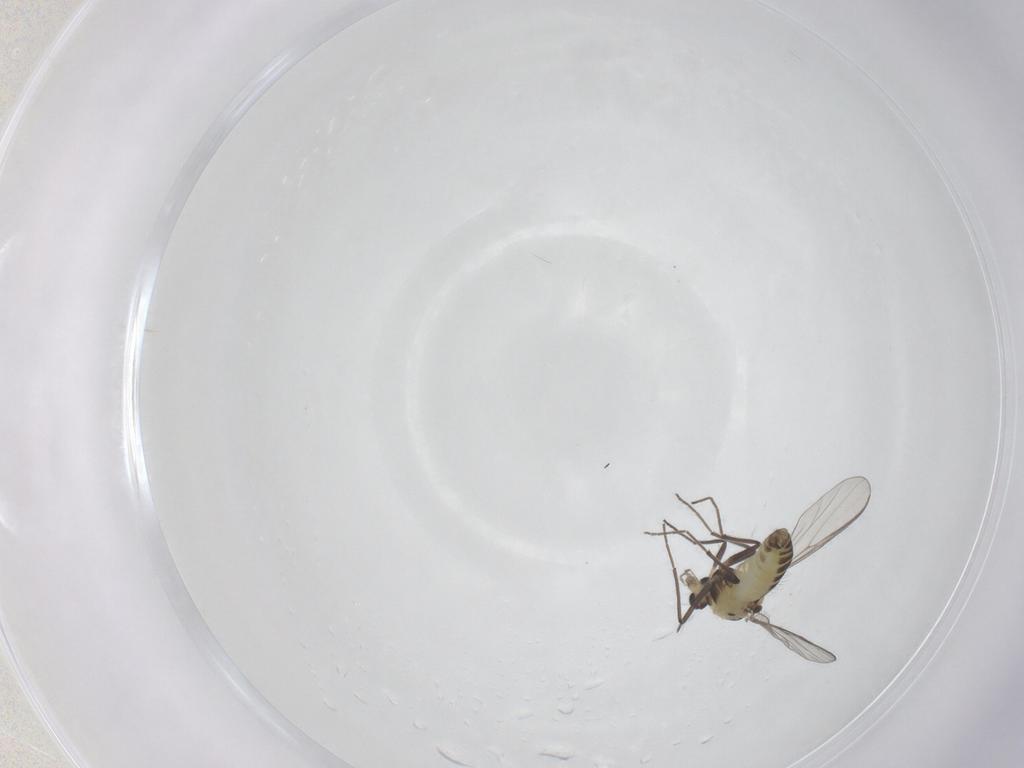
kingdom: Animalia
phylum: Arthropoda
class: Insecta
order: Diptera
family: Chironomidae
